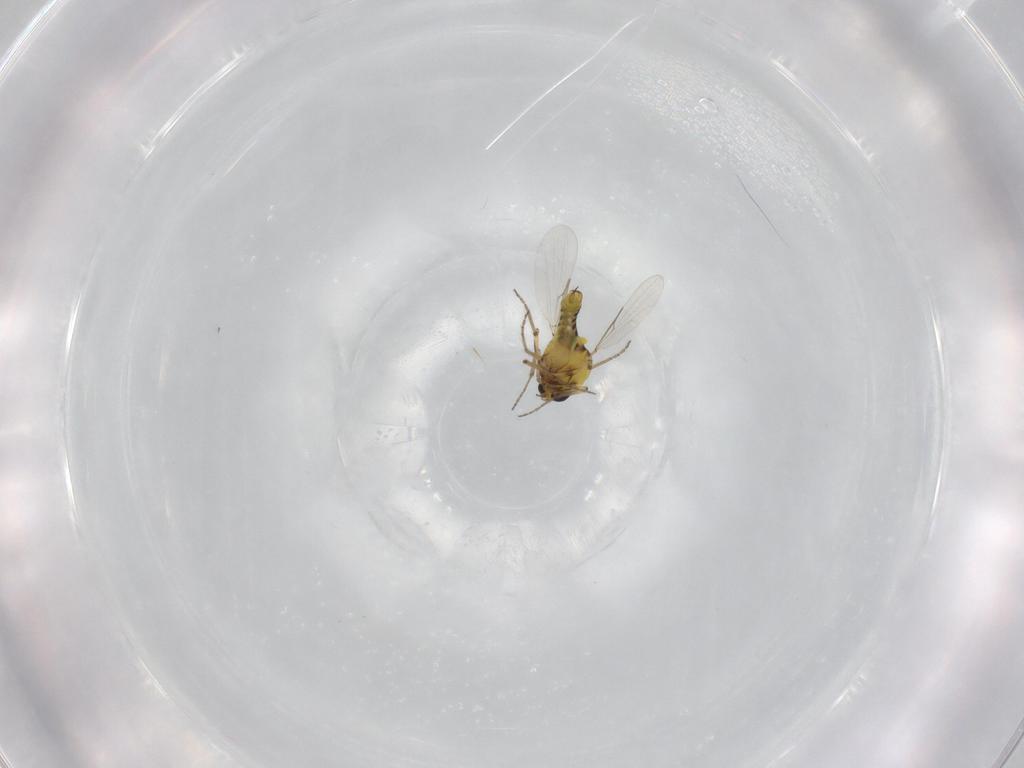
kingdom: Animalia
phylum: Arthropoda
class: Insecta
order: Diptera
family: Ceratopogonidae
